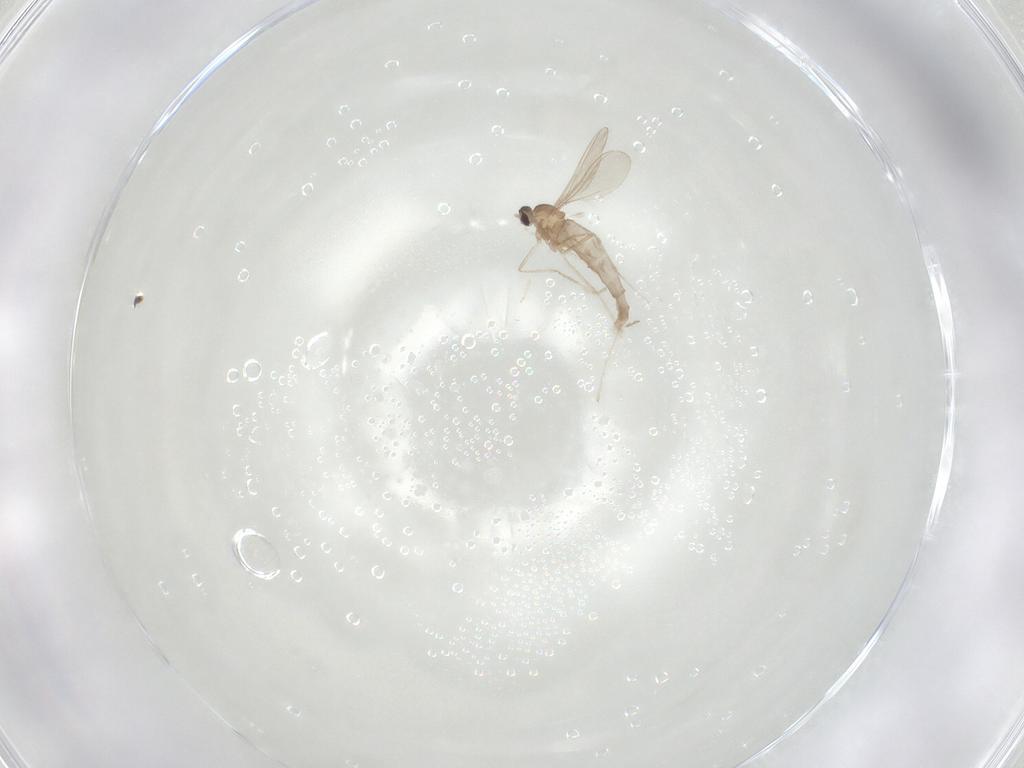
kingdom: Animalia
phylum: Arthropoda
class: Insecta
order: Diptera
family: Cecidomyiidae
